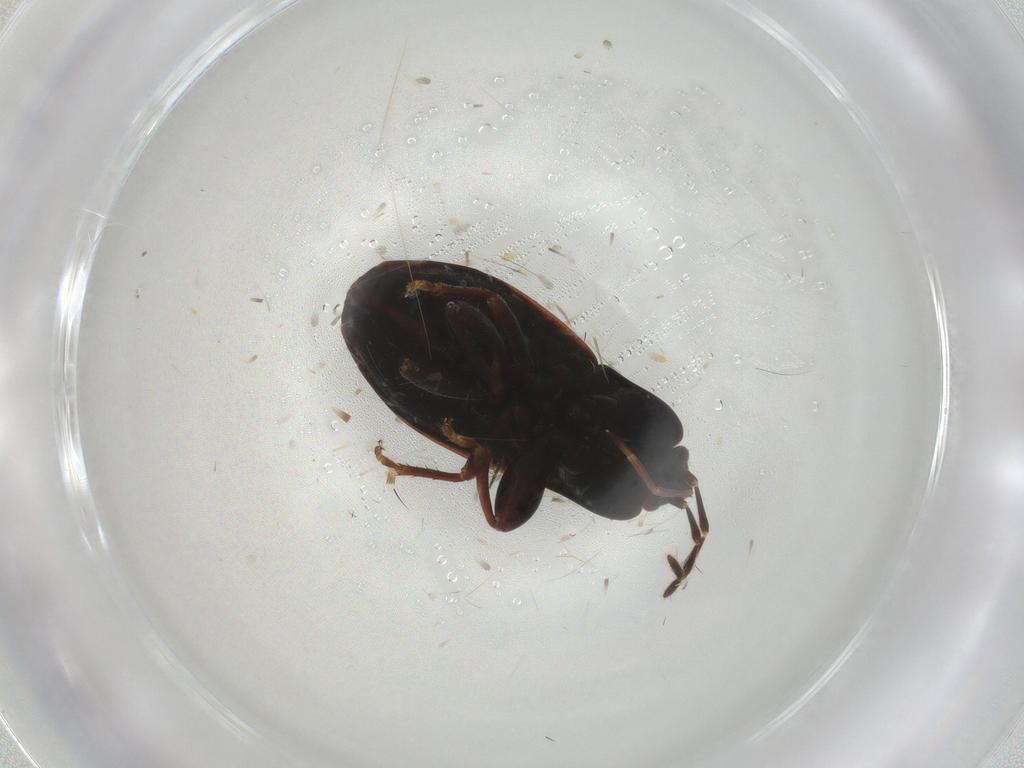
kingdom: Animalia
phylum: Arthropoda
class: Insecta
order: Hemiptera
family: Rhyparochromidae
